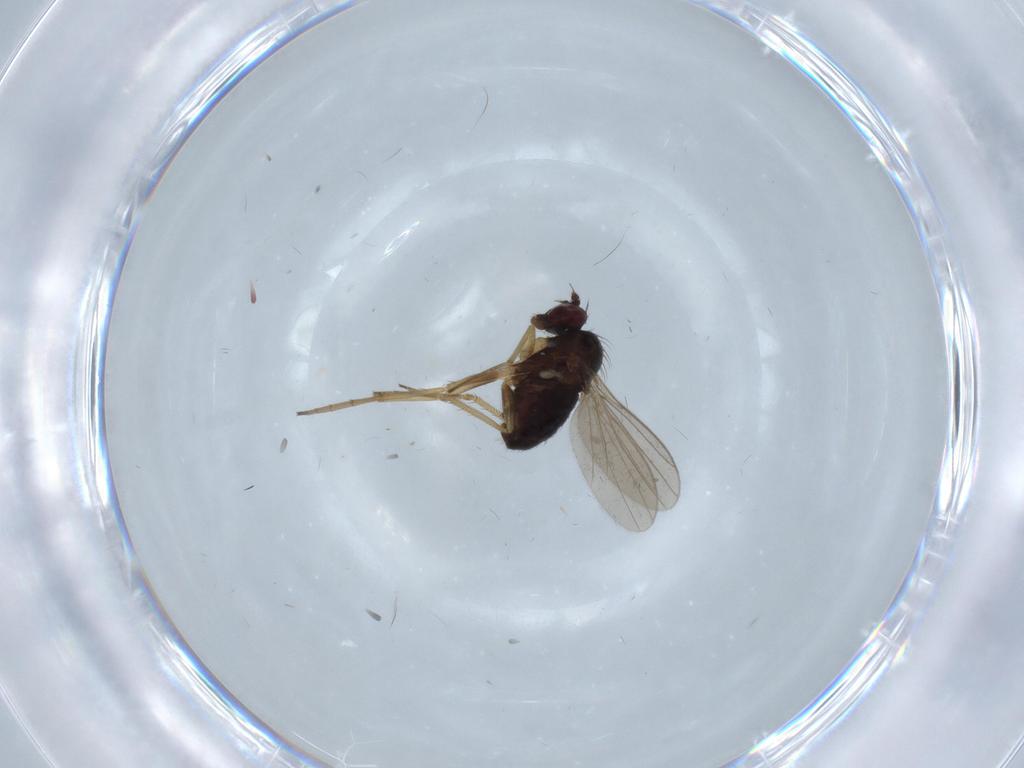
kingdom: Animalia
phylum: Arthropoda
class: Insecta
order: Diptera
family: Dolichopodidae
